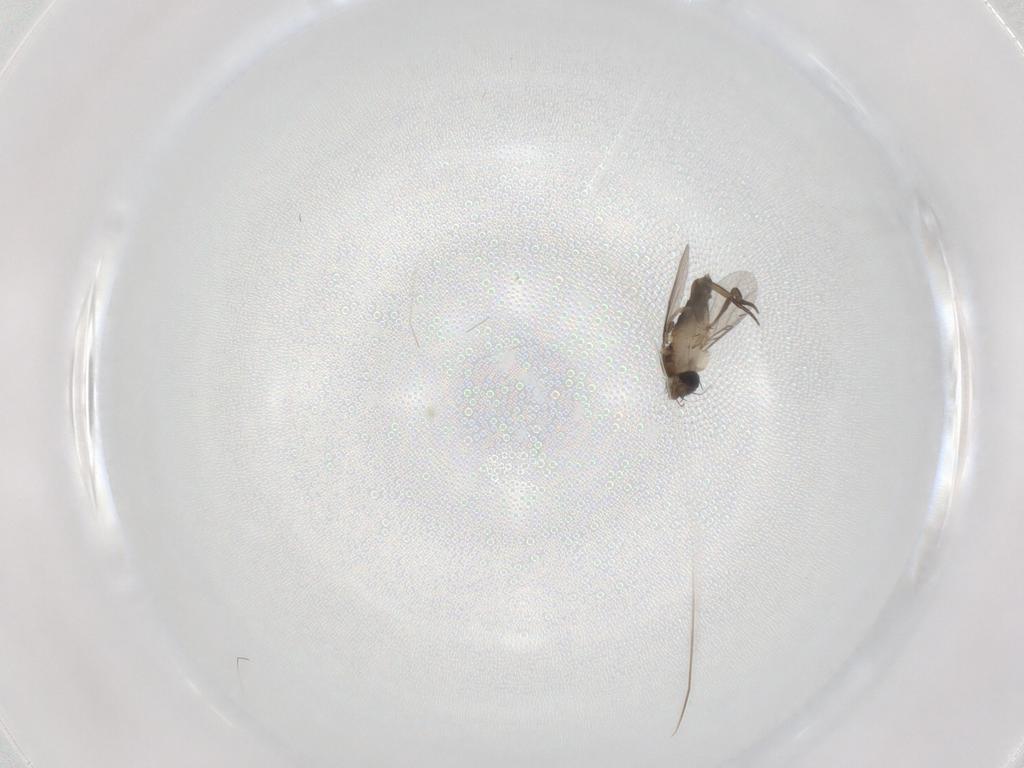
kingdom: Animalia
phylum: Arthropoda
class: Insecta
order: Diptera
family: Phoridae
